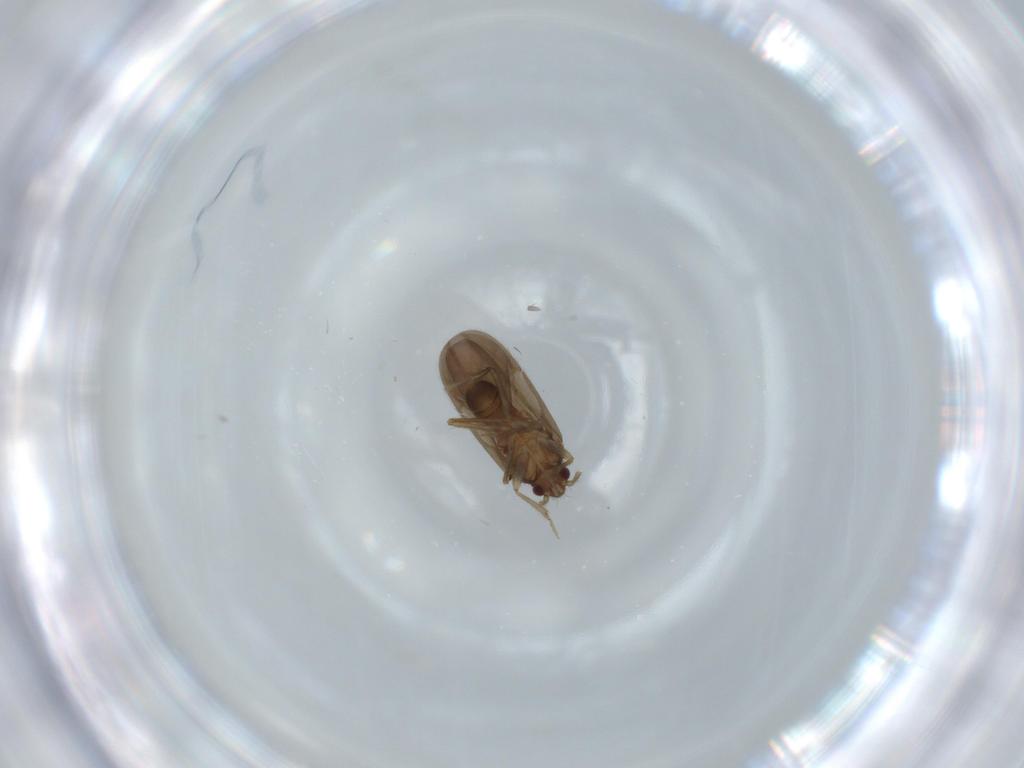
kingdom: Animalia
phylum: Arthropoda
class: Insecta
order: Hemiptera
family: Ceratocombidae
